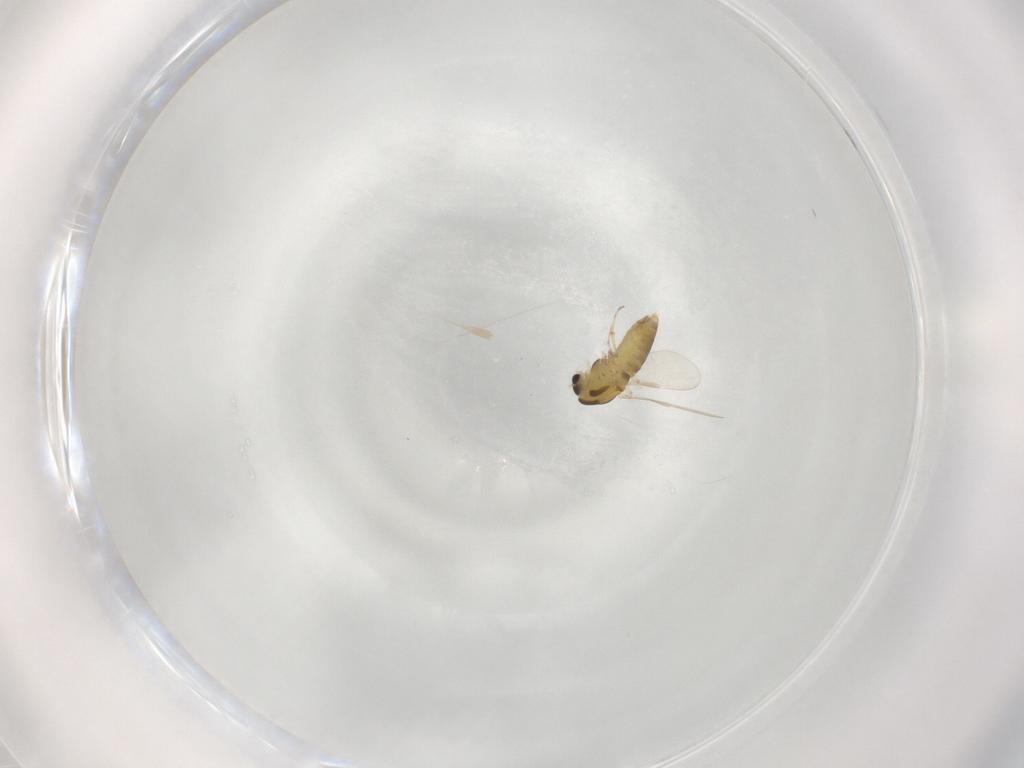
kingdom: Animalia
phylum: Arthropoda
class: Insecta
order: Diptera
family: Chironomidae
